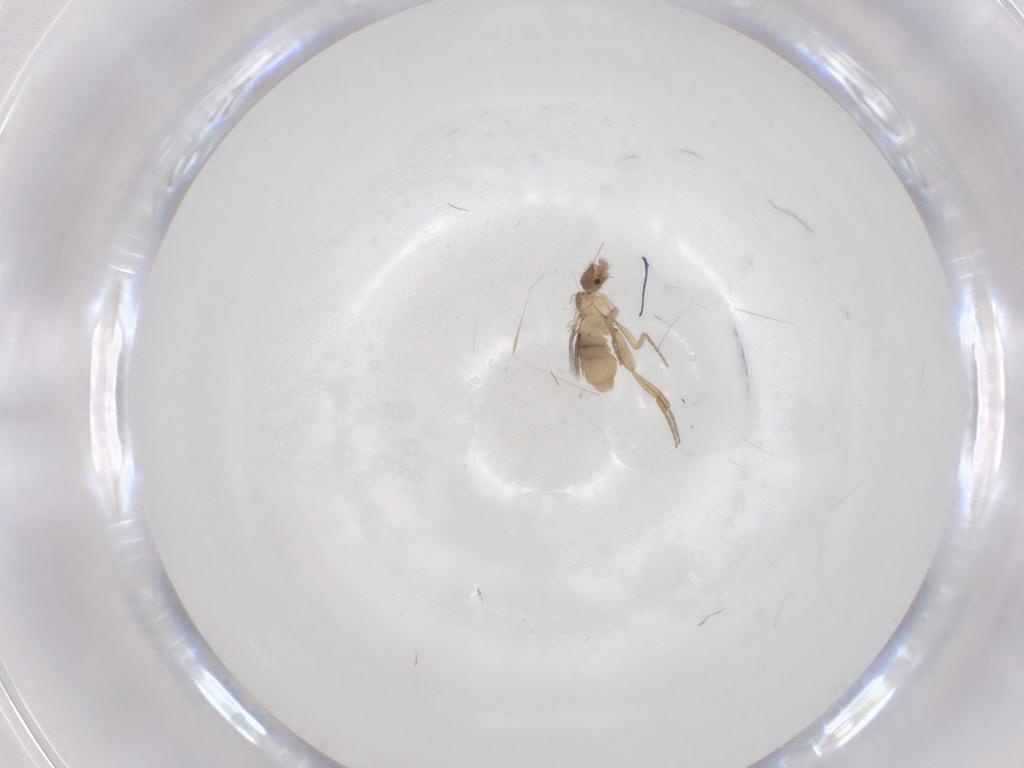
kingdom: Animalia
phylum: Arthropoda
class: Insecta
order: Diptera
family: Phoridae
